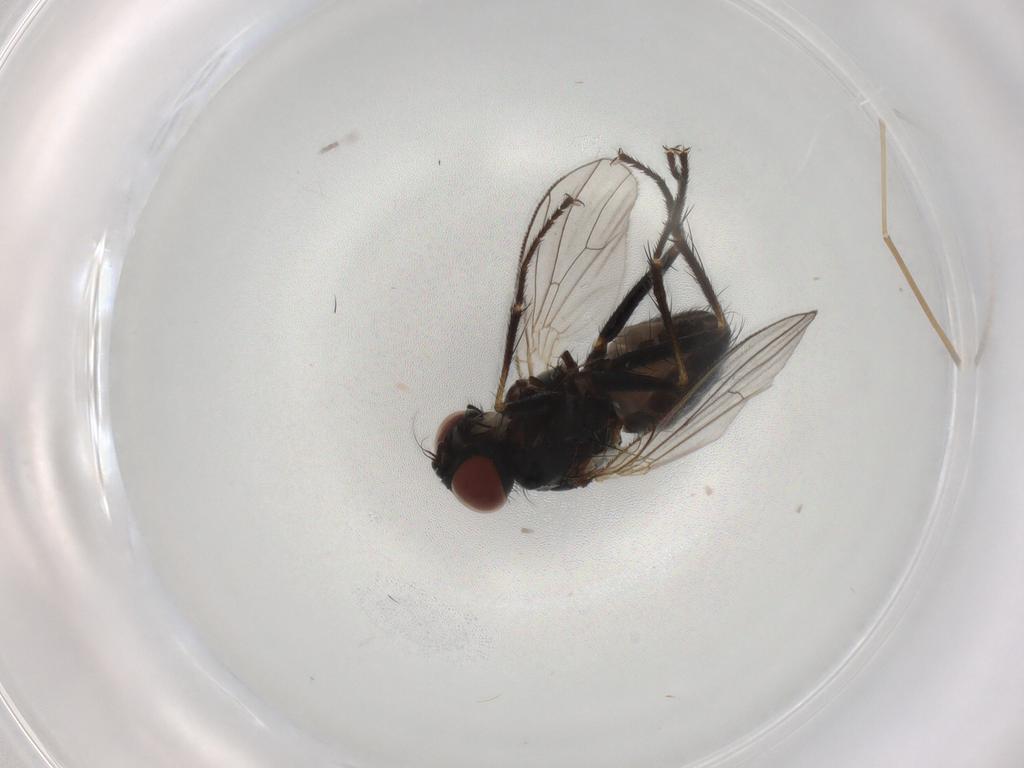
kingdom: Animalia
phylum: Arthropoda
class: Insecta
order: Diptera
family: Muscidae
